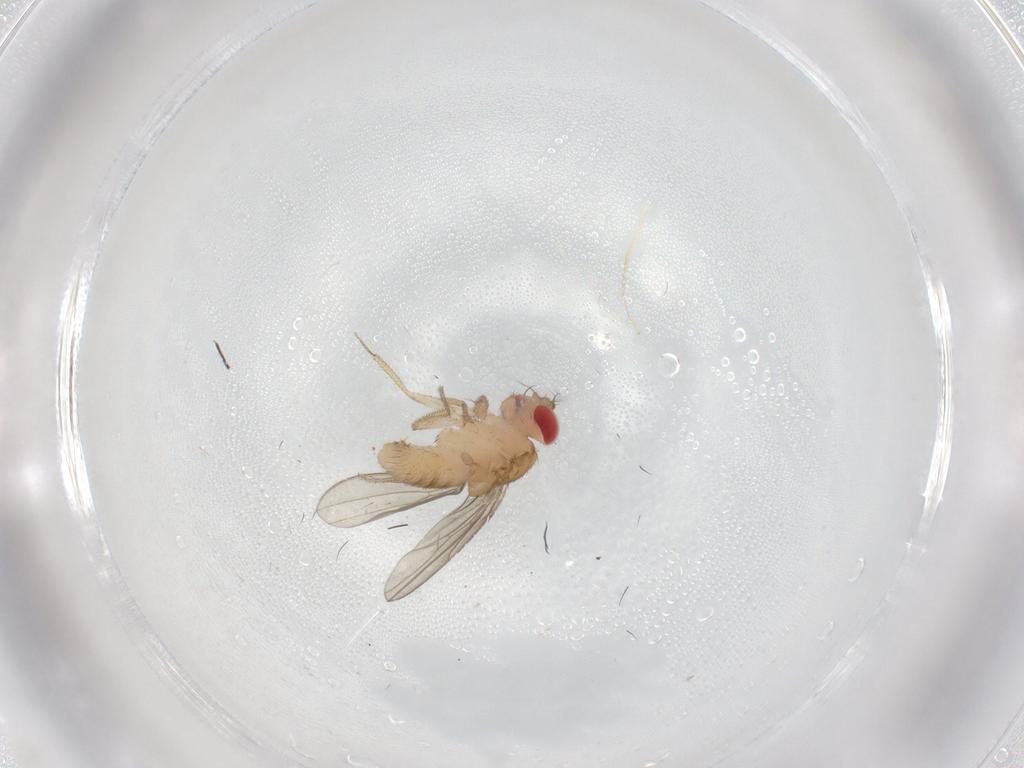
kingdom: Animalia
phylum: Arthropoda
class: Insecta
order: Diptera
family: Drosophilidae
